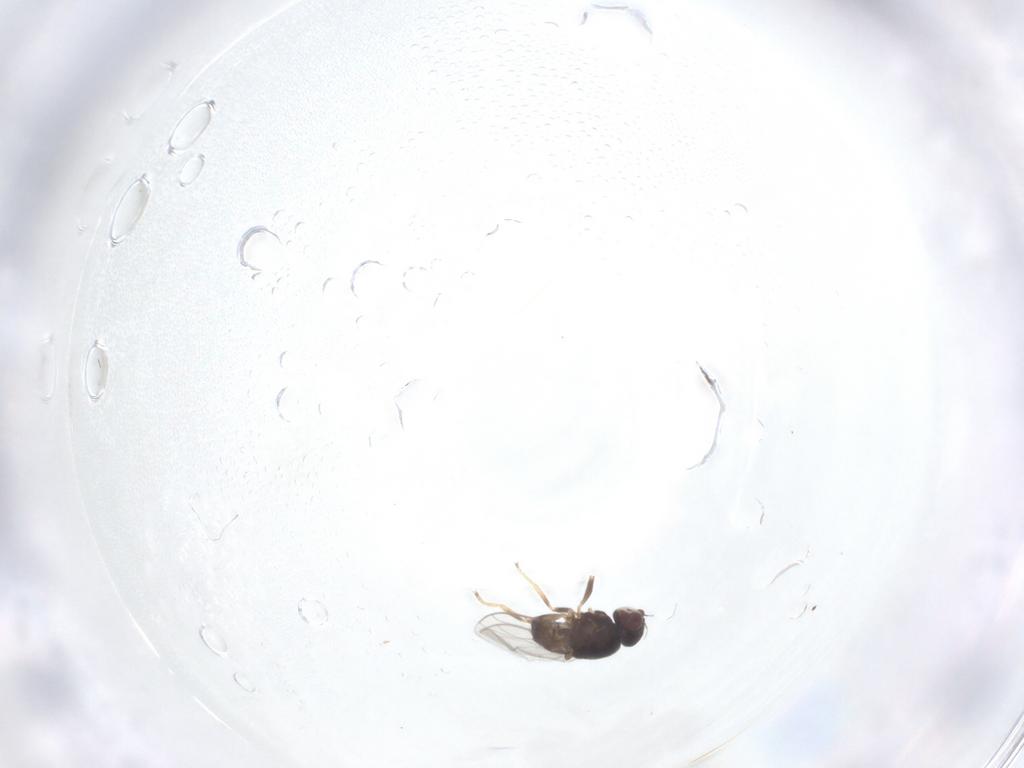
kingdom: Animalia
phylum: Arthropoda
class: Insecta
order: Diptera
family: Chloropidae
